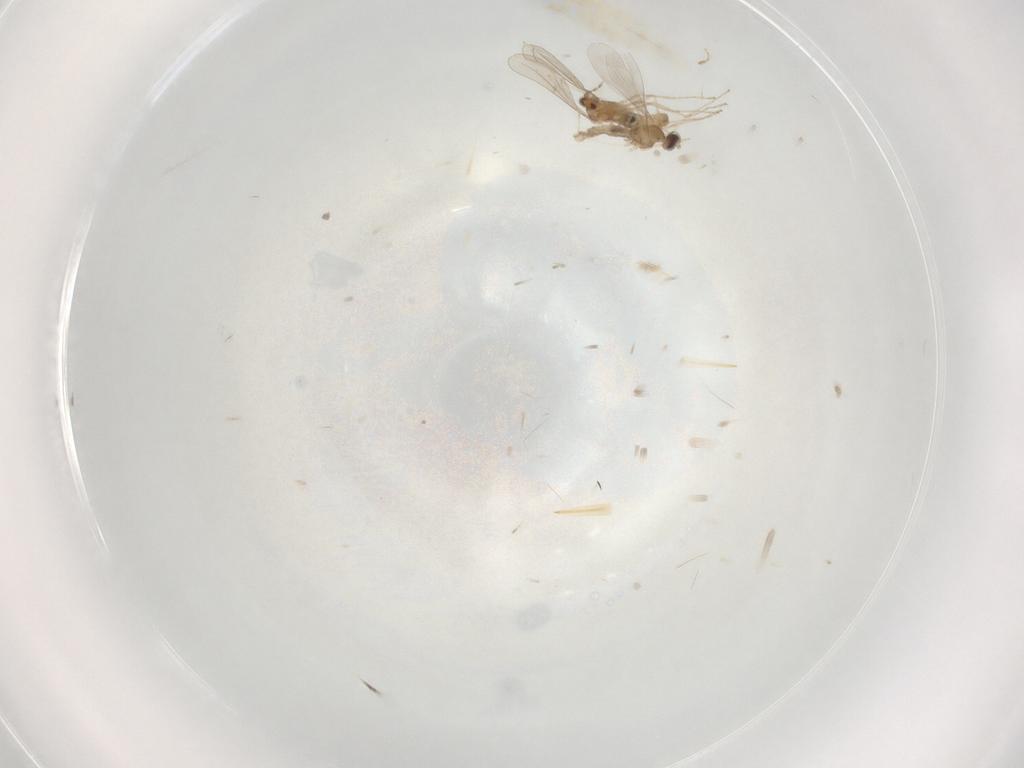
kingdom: Animalia
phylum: Arthropoda
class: Insecta
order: Diptera
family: Cecidomyiidae
